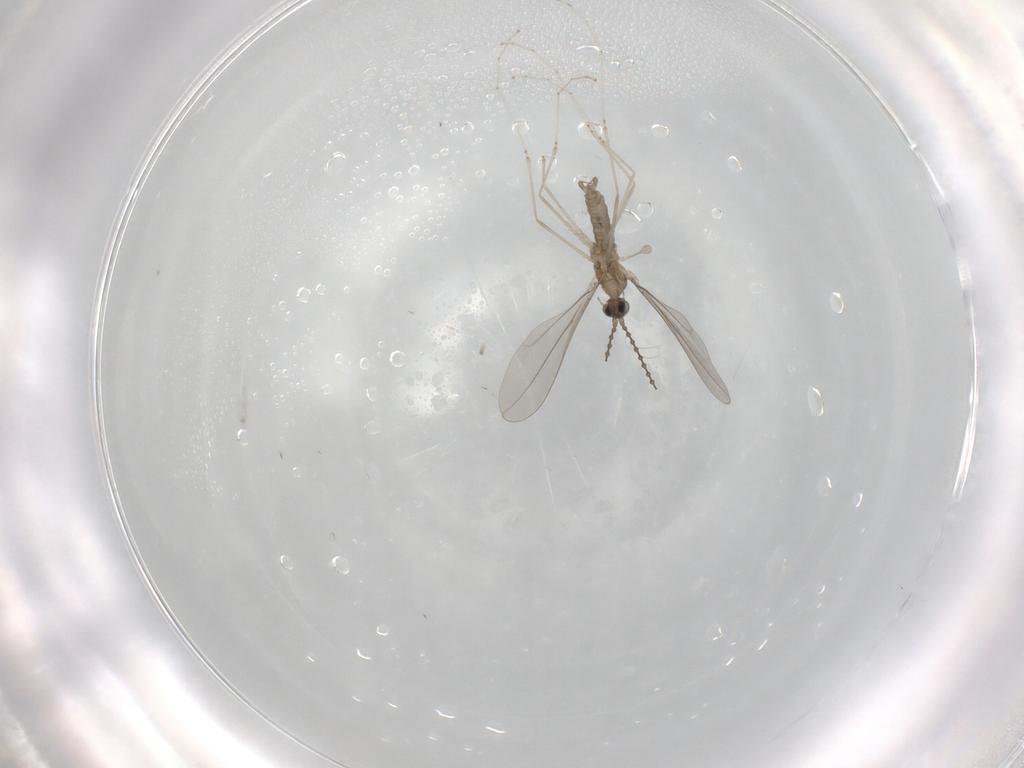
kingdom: Animalia
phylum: Arthropoda
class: Insecta
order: Diptera
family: Cecidomyiidae
